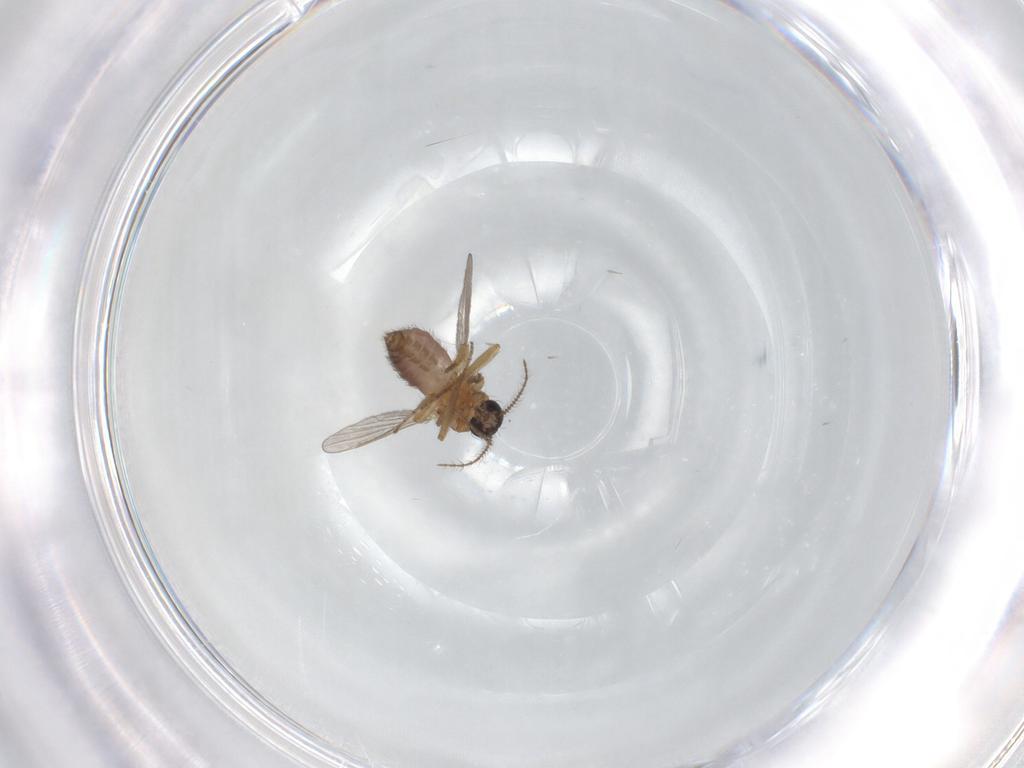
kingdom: Animalia
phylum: Arthropoda
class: Insecta
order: Diptera
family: Ceratopogonidae
